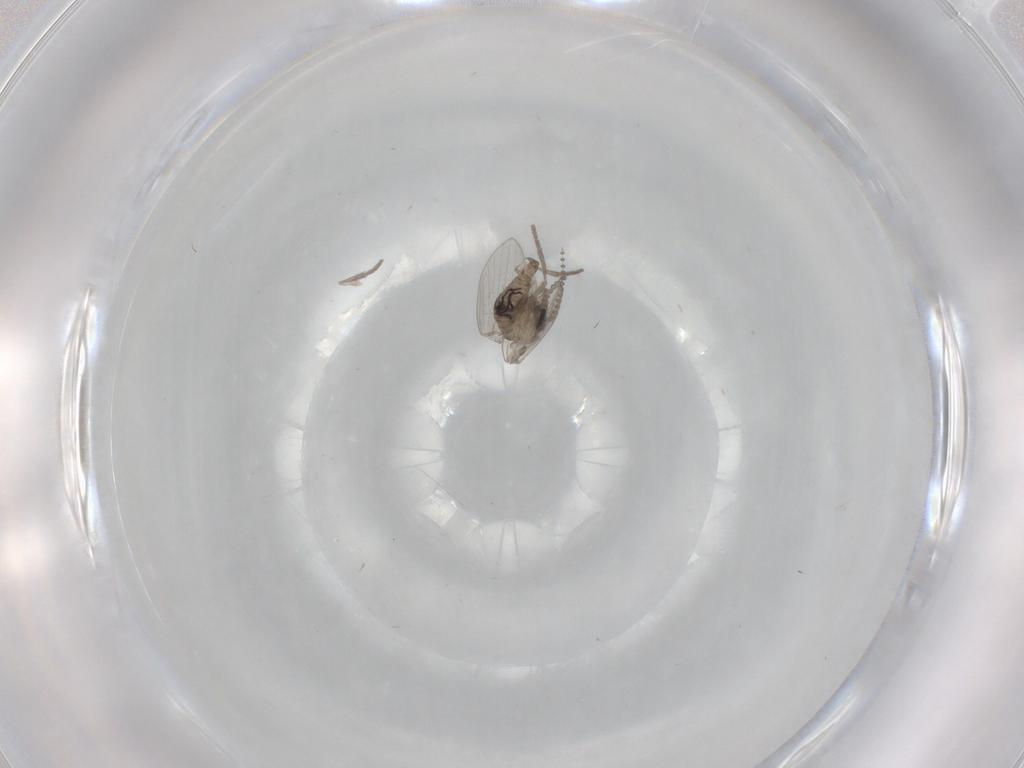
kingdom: Animalia
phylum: Arthropoda
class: Insecta
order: Diptera
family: Psychodidae
